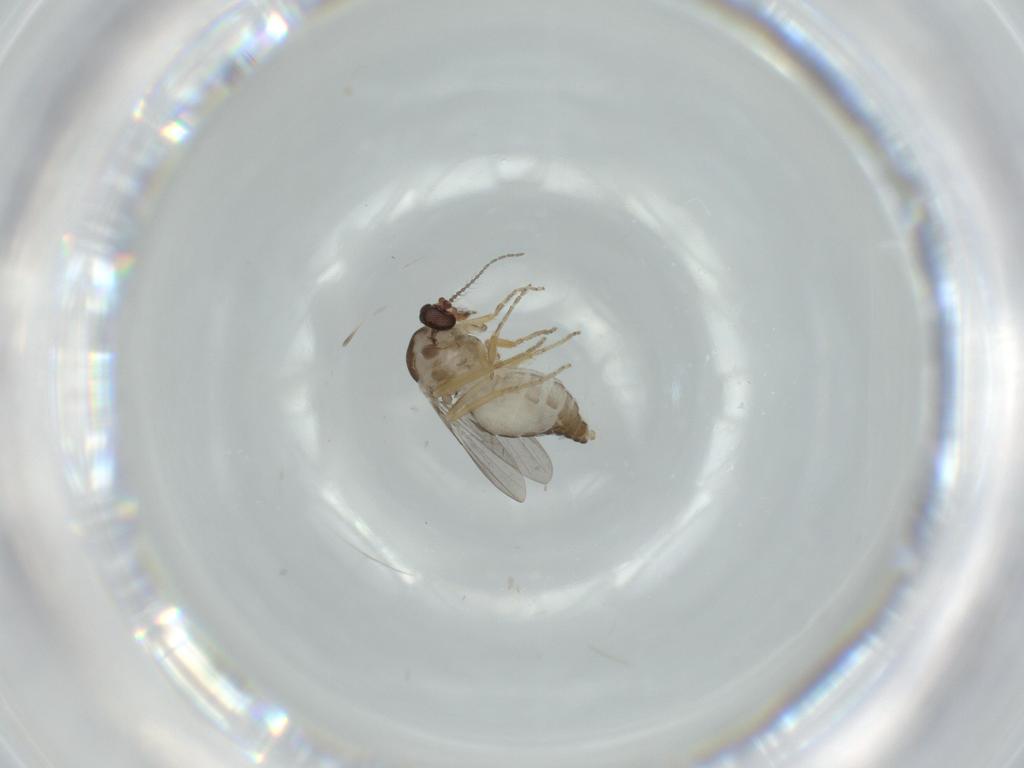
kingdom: Animalia
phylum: Arthropoda
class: Insecta
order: Diptera
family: Ceratopogonidae
